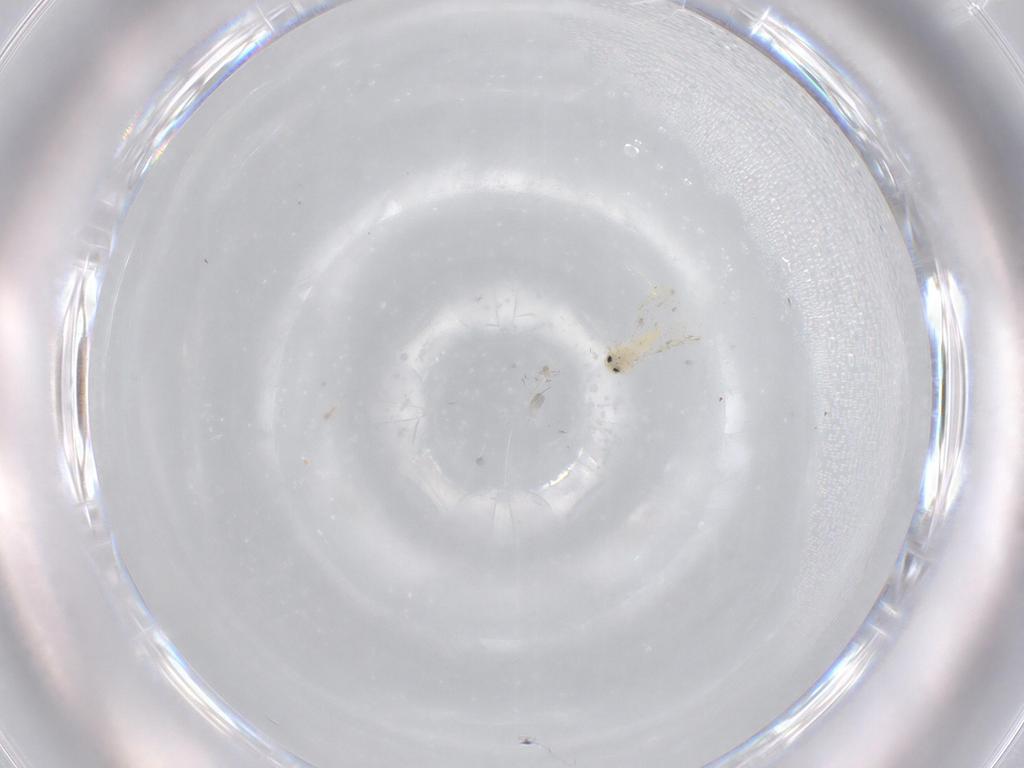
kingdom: Animalia
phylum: Arthropoda
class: Insecta
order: Hemiptera
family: Aleyrodidae
